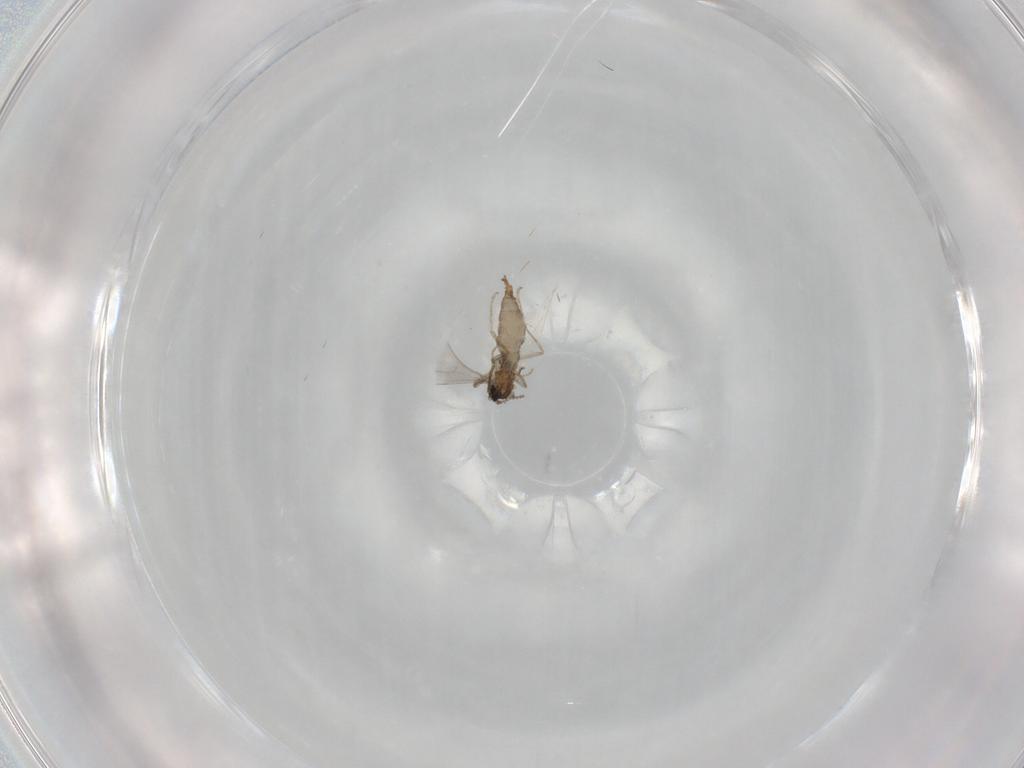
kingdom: Animalia
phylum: Arthropoda
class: Insecta
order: Diptera
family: Cecidomyiidae
